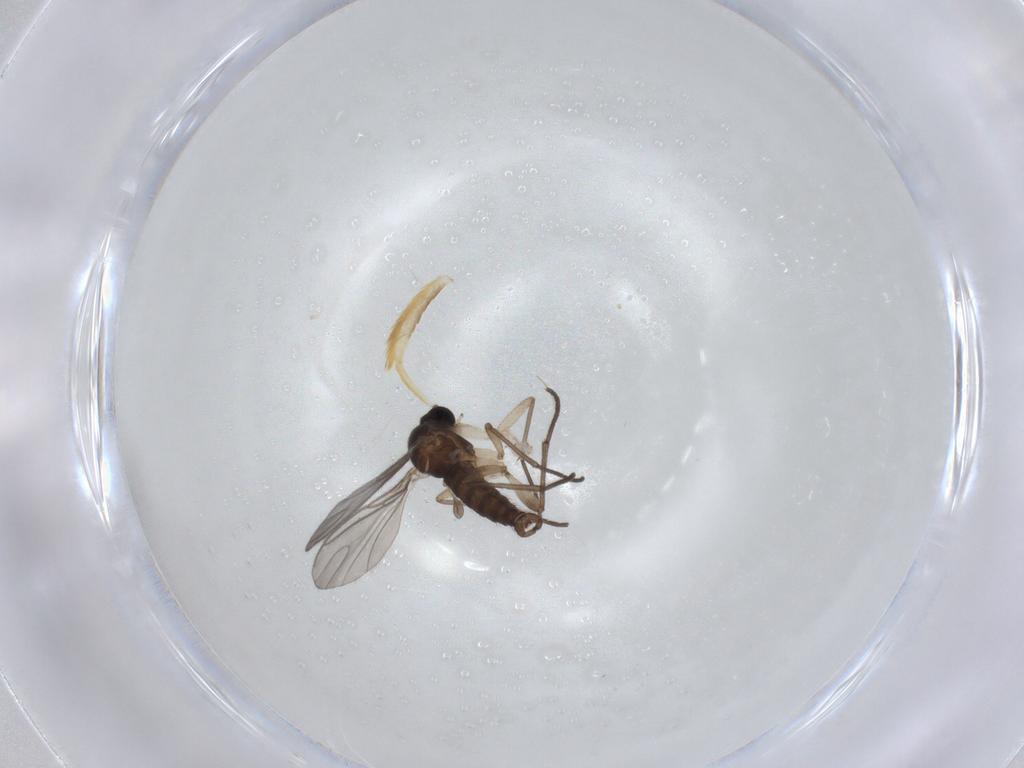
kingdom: Animalia
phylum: Arthropoda
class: Insecta
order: Diptera
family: Sciaridae
